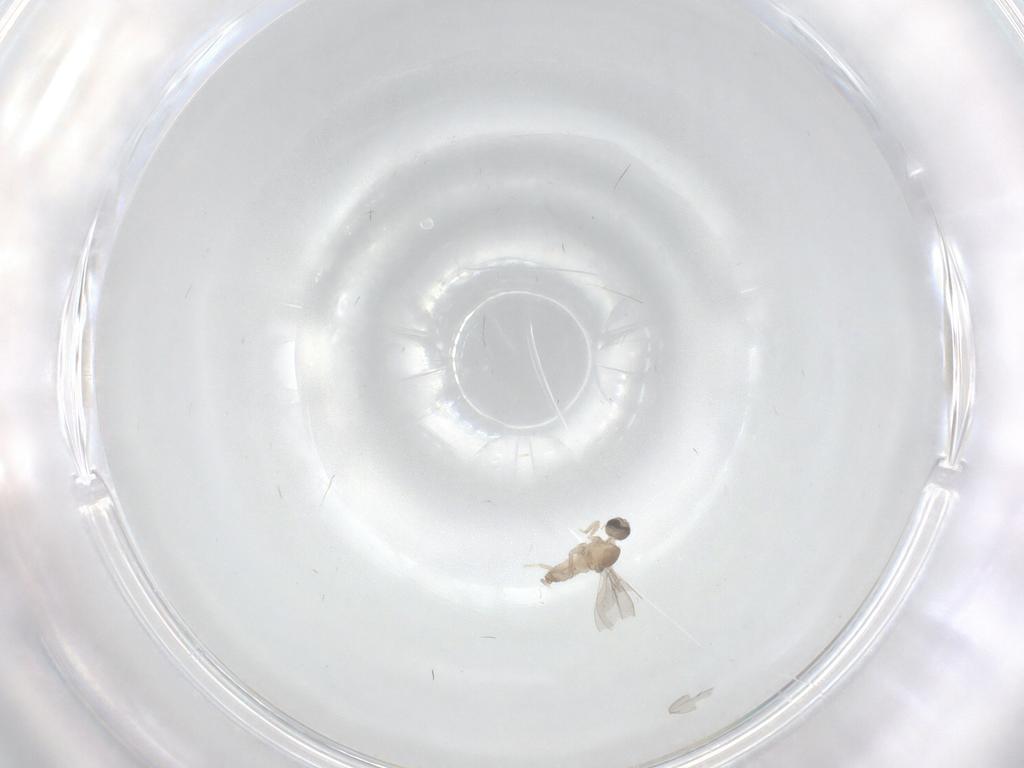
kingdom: Animalia
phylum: Arthropoda
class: Insecta
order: Diptera
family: Cecidomyiidae
